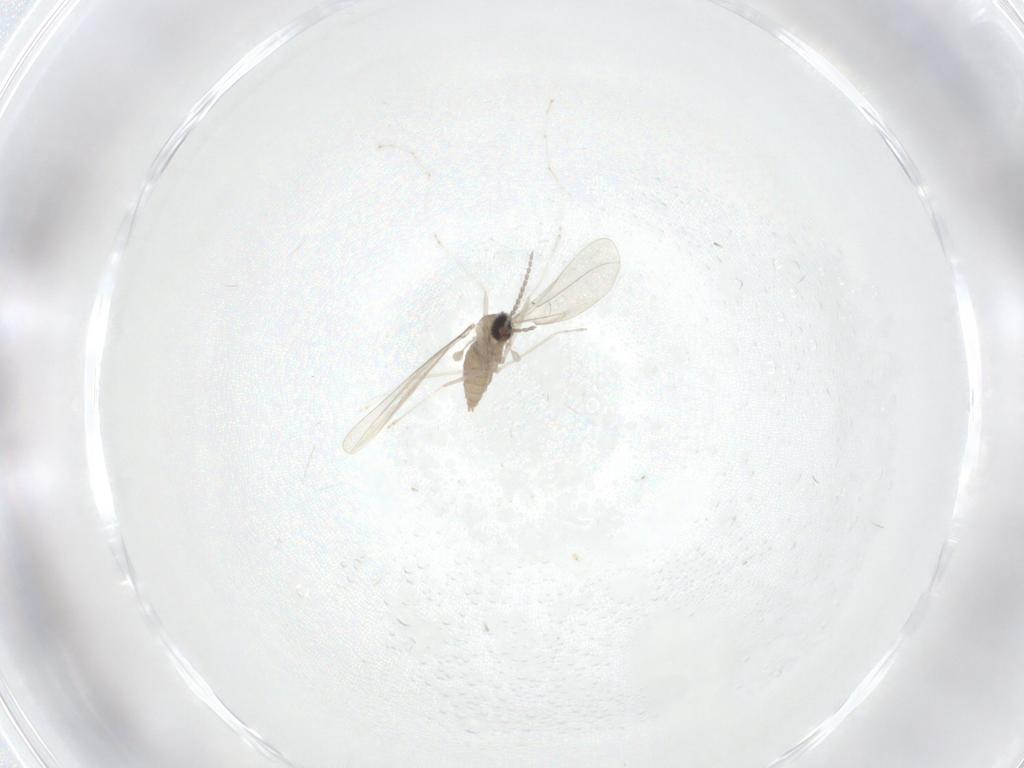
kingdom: Animalia
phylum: Arthropoda
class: Insecta
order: Diptera
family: Cecidomyiidae
